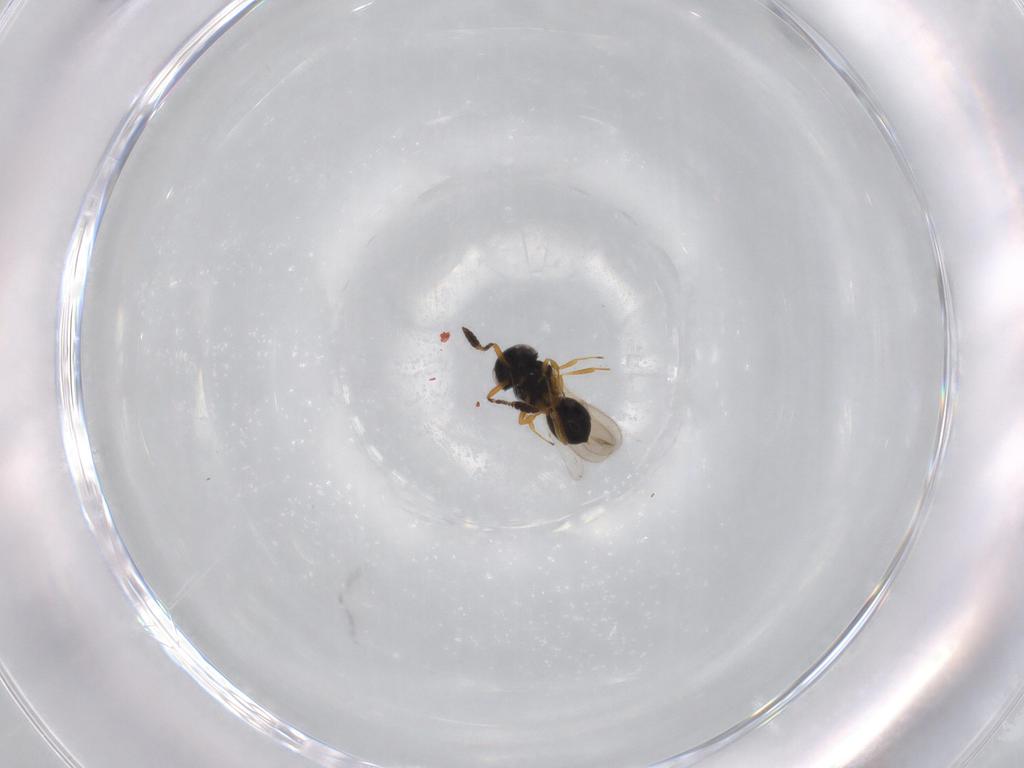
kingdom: Animalia
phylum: Arthropoda
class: Insecta
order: Hymenoptera
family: Scelionidae
